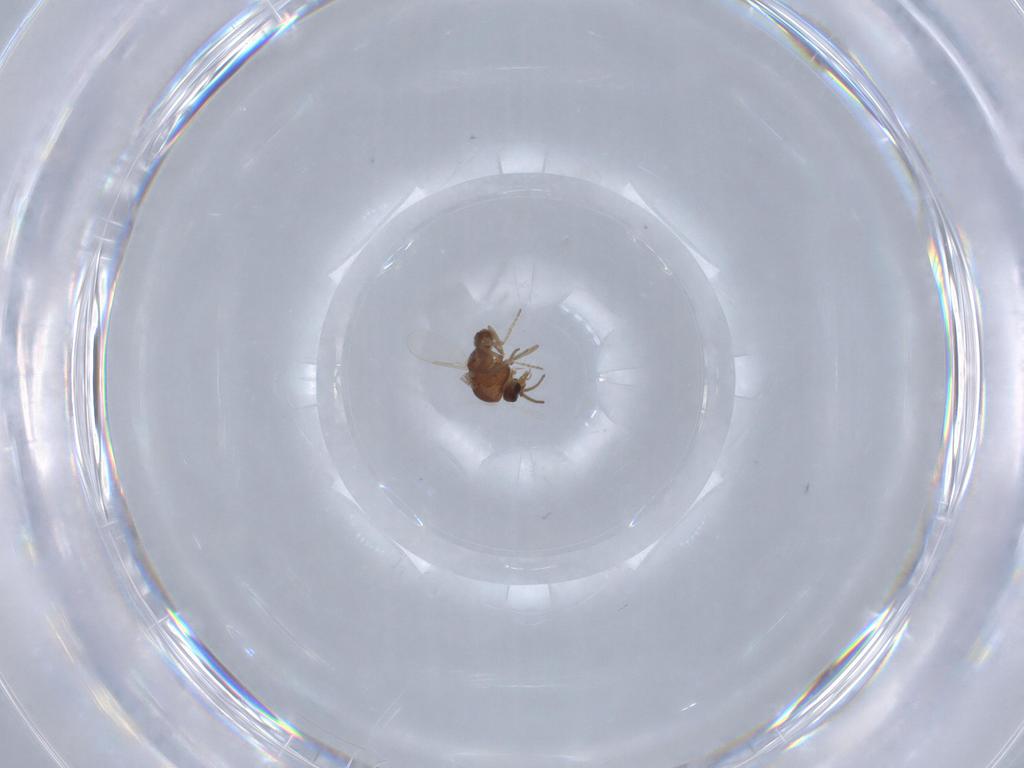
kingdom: Animalia
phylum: Arthropoda
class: Insecta
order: Diptera
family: Ceratopogonidae
